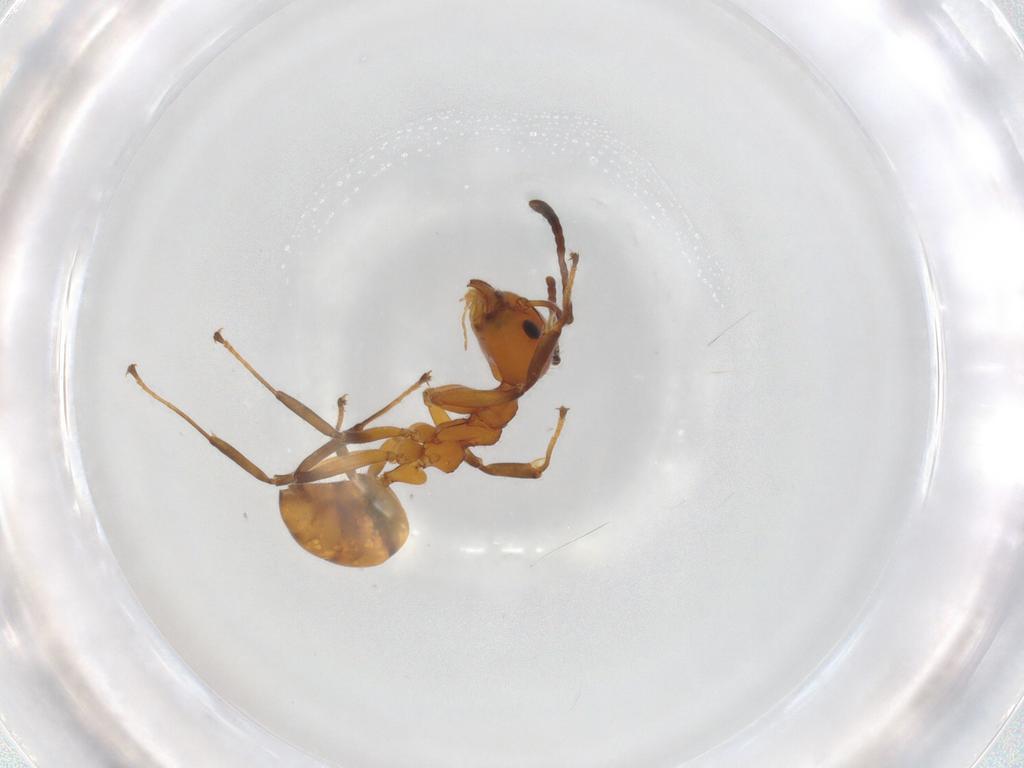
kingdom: Animalia
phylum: Arthropoda
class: Insecta
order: Hymenoptera
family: Formicidae
